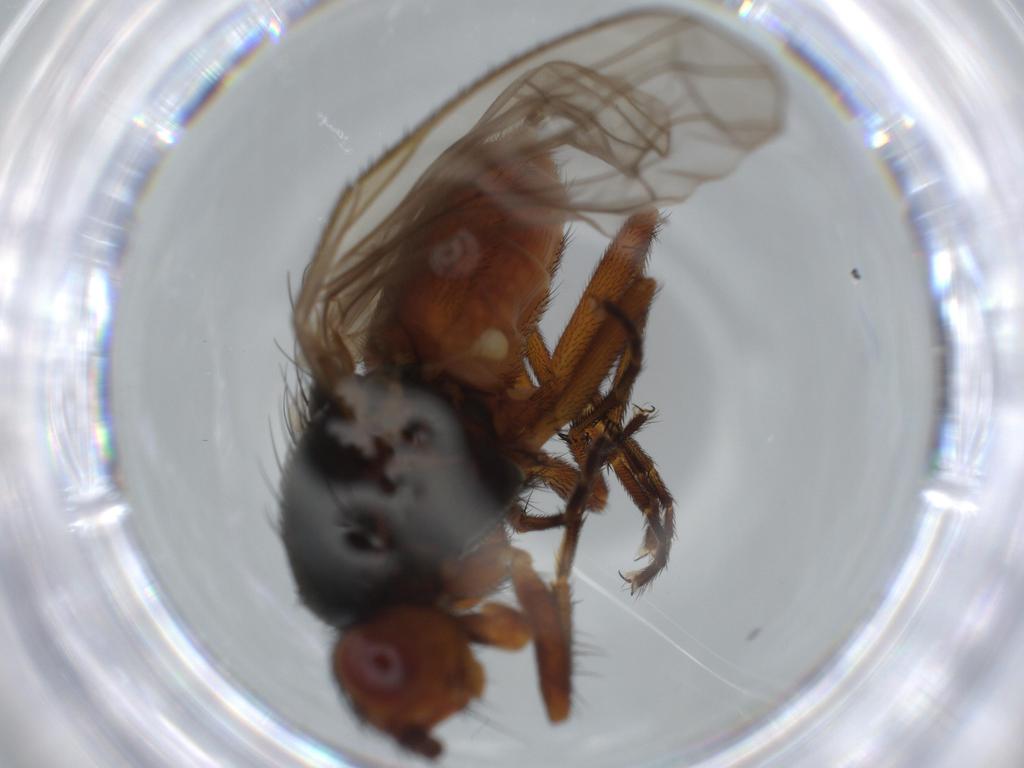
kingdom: Animalia
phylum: Arthropoda
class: Insecta
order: Diptera
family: Heleomyzidae
